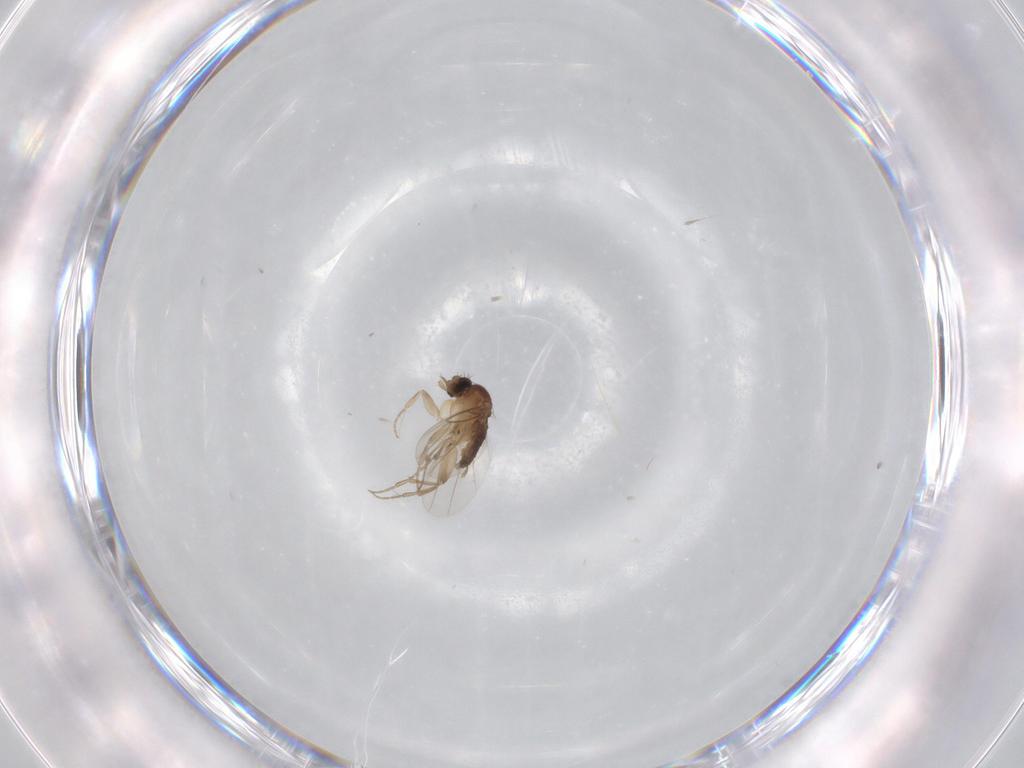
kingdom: Animalia
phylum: Arthropoda
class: Insecta
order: Diptera
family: Phoridae
